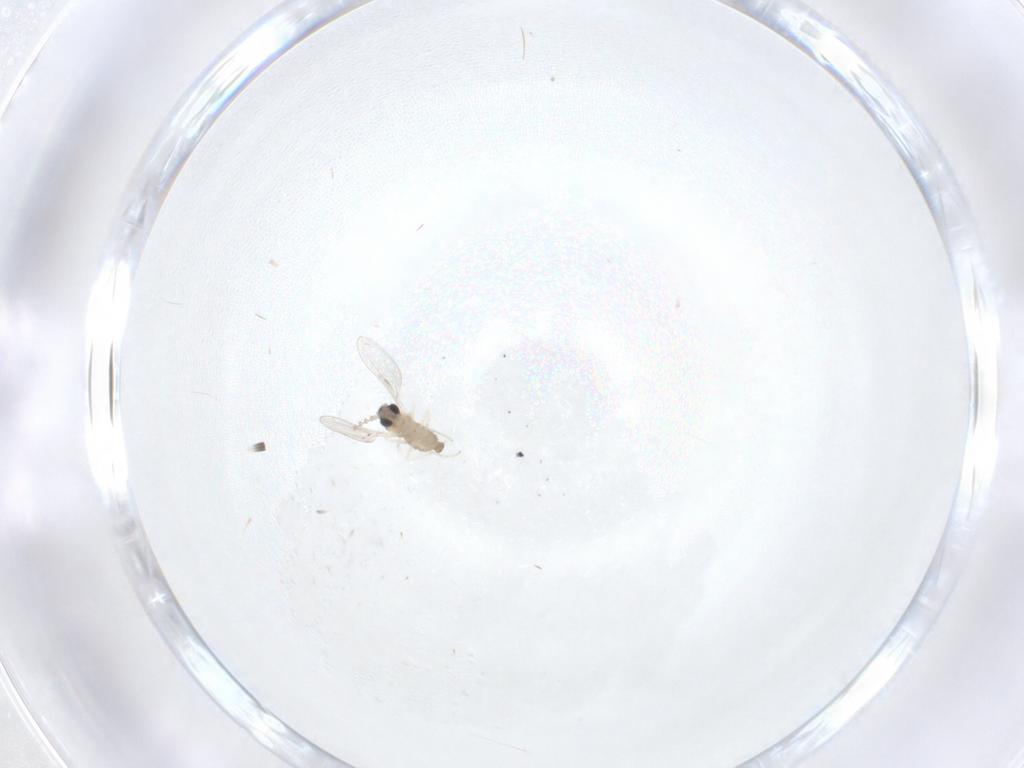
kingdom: Animalia
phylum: Arthropoda
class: Insecta
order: Diptera
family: Cecidomyiidae
